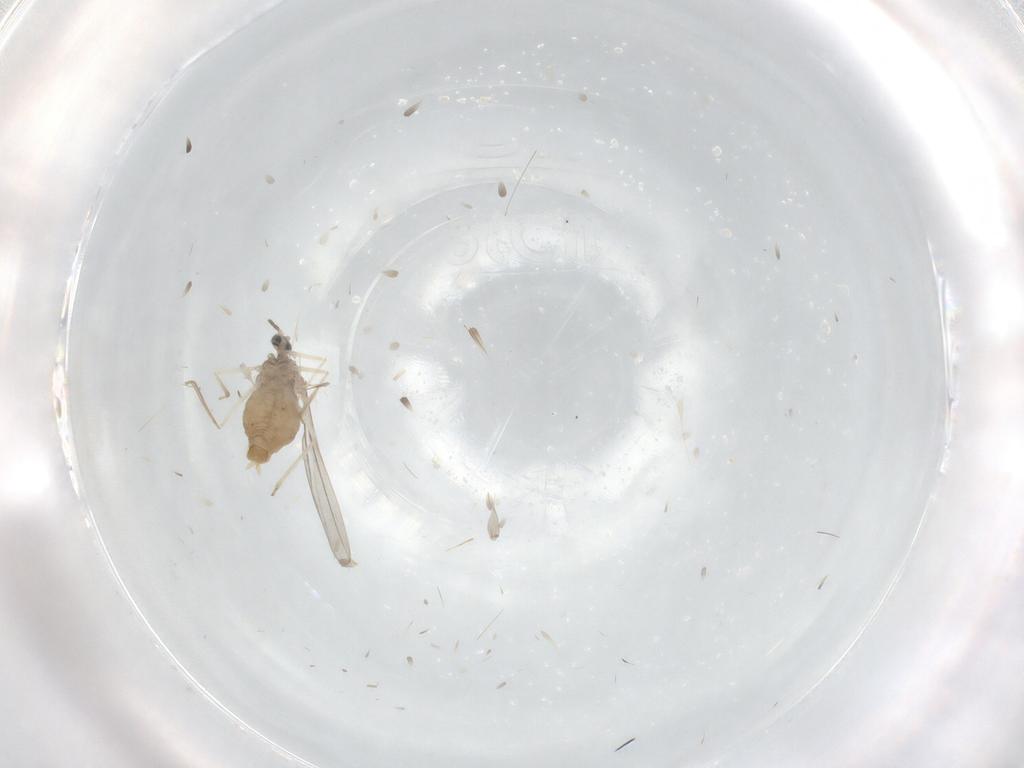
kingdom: Animalia
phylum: Arthropoda
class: Insecta
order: Diptera
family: Cecidomyiidae
